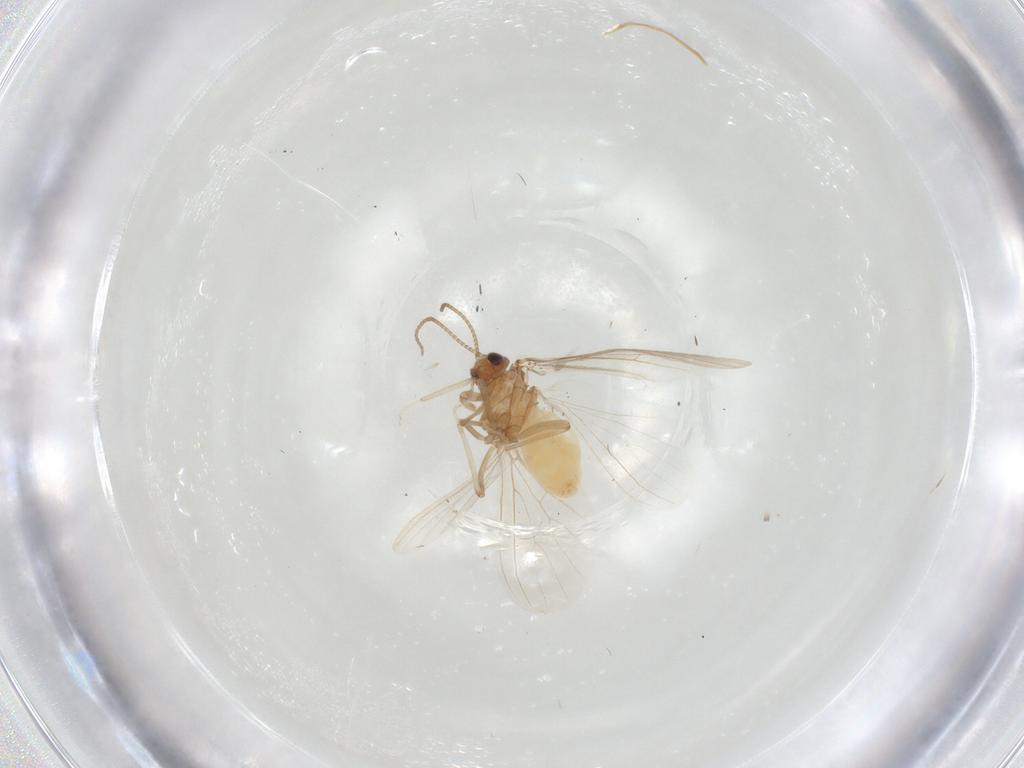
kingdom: Animalia
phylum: Arthropoda
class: Insecta
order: Neuroptera
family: Coniopterygidae
